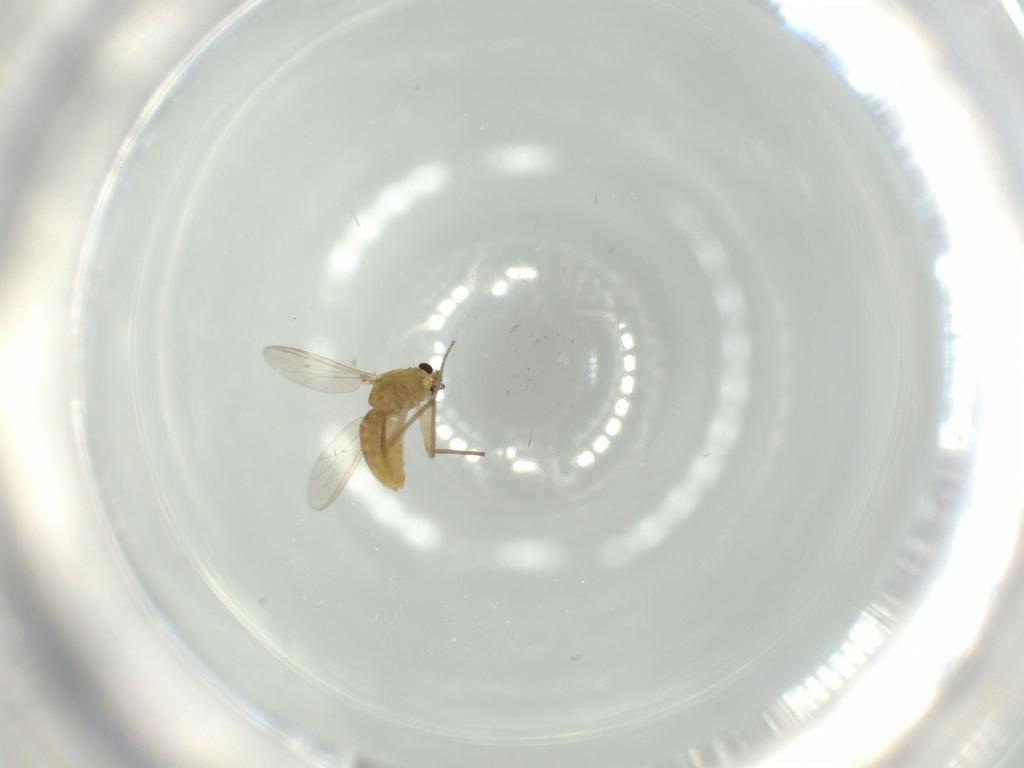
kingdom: Animalia
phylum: Arthropoda
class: Insecta
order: Diptera
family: Chironomidae
